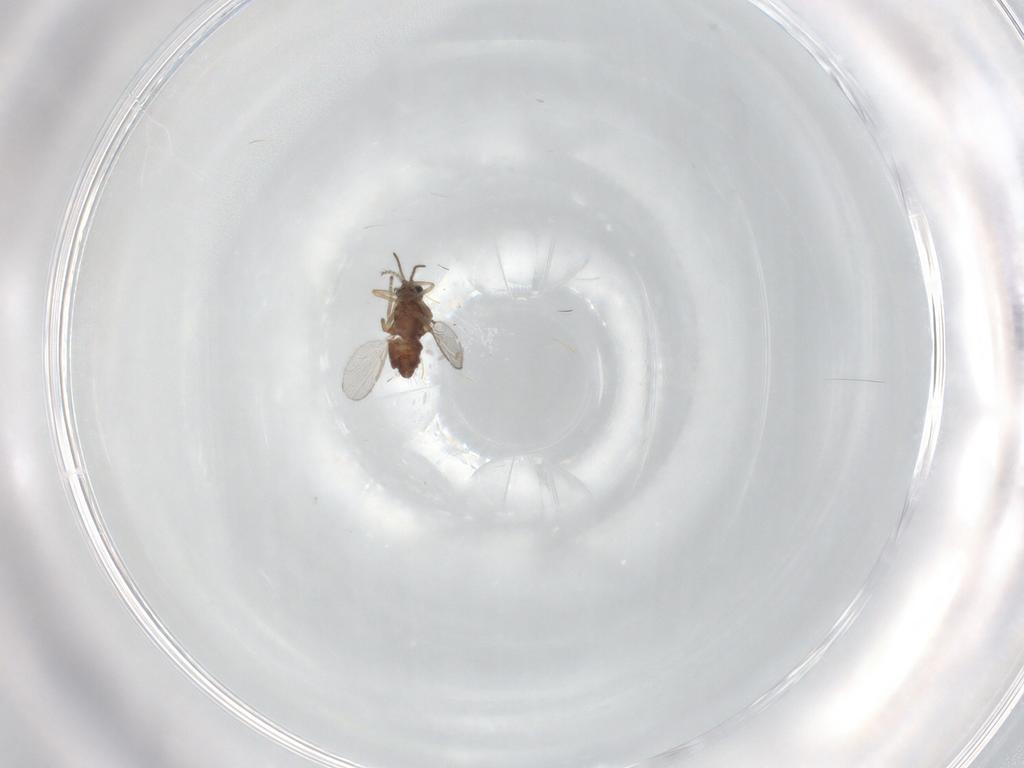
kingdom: Animalia
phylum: Arthropoda
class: Insecta
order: Diptera
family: Ceratopogonidae
